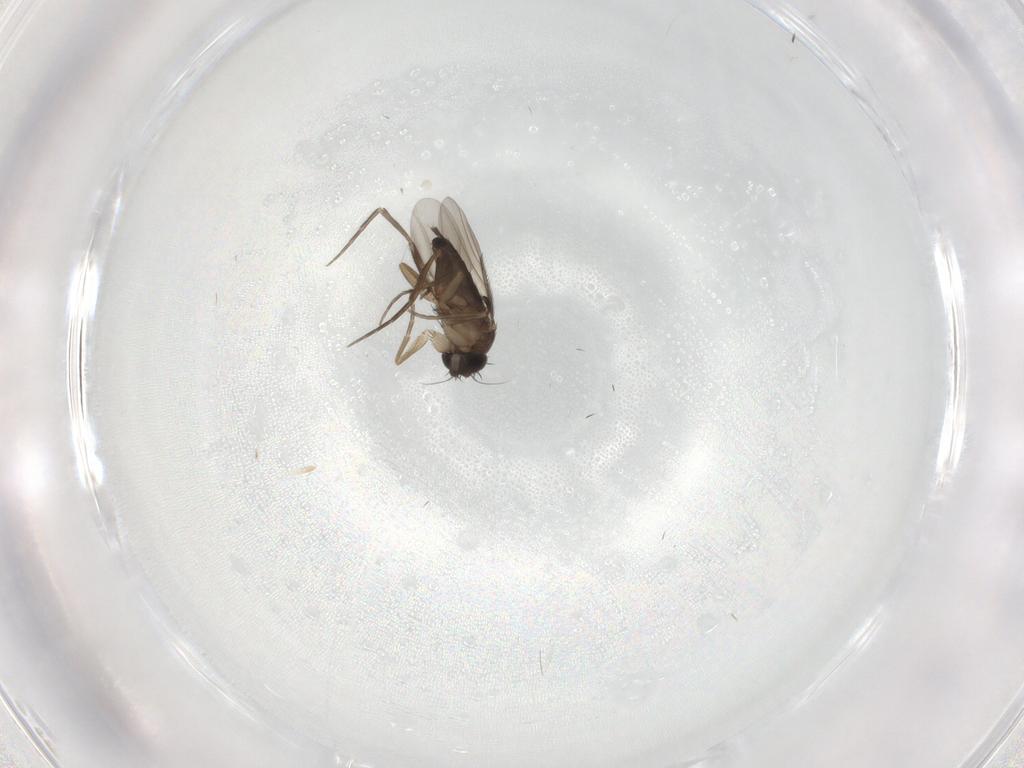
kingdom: Animalia
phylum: Arthropoda
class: Insecta
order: Diptera
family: Phoridae
